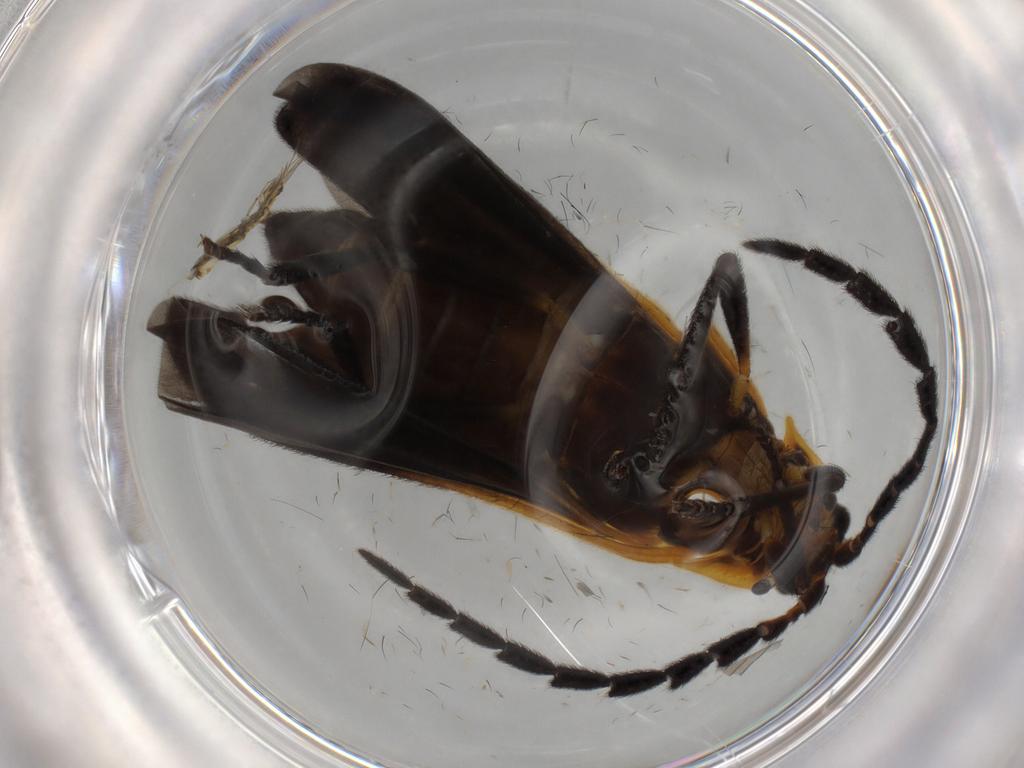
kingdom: Animalia
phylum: Arthropoda
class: Insecta
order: Coleoptera
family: Lycidae
